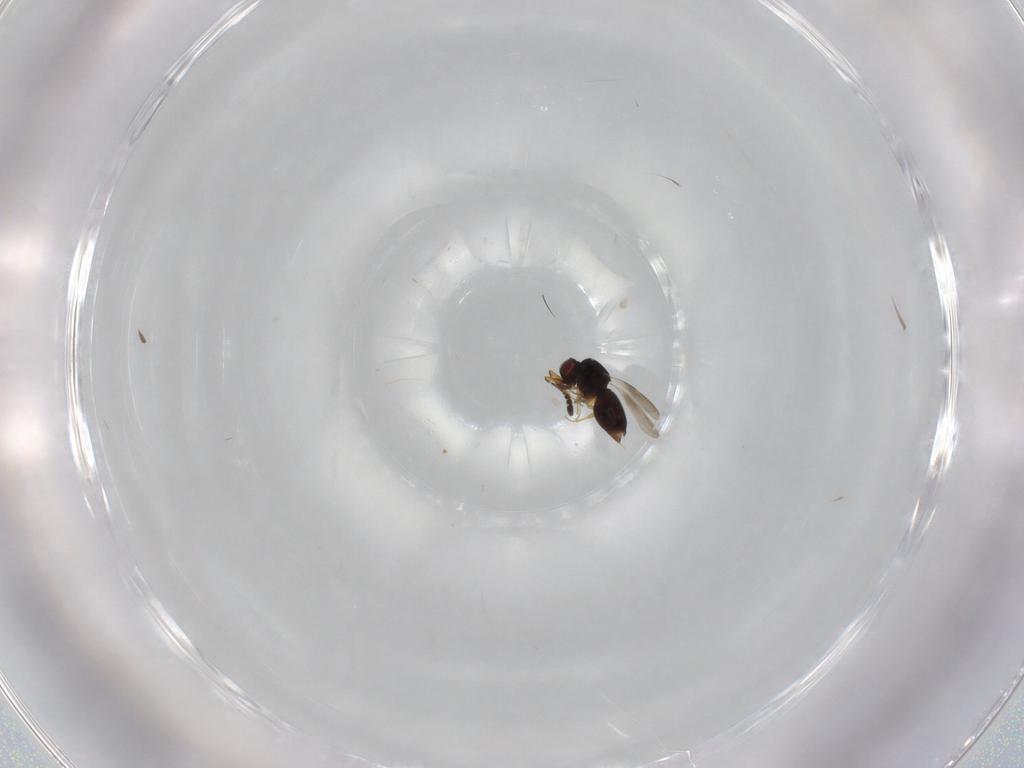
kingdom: Animalia
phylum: Arthropoda
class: Insecta
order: Hymenoptera
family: Ceraphronidae
